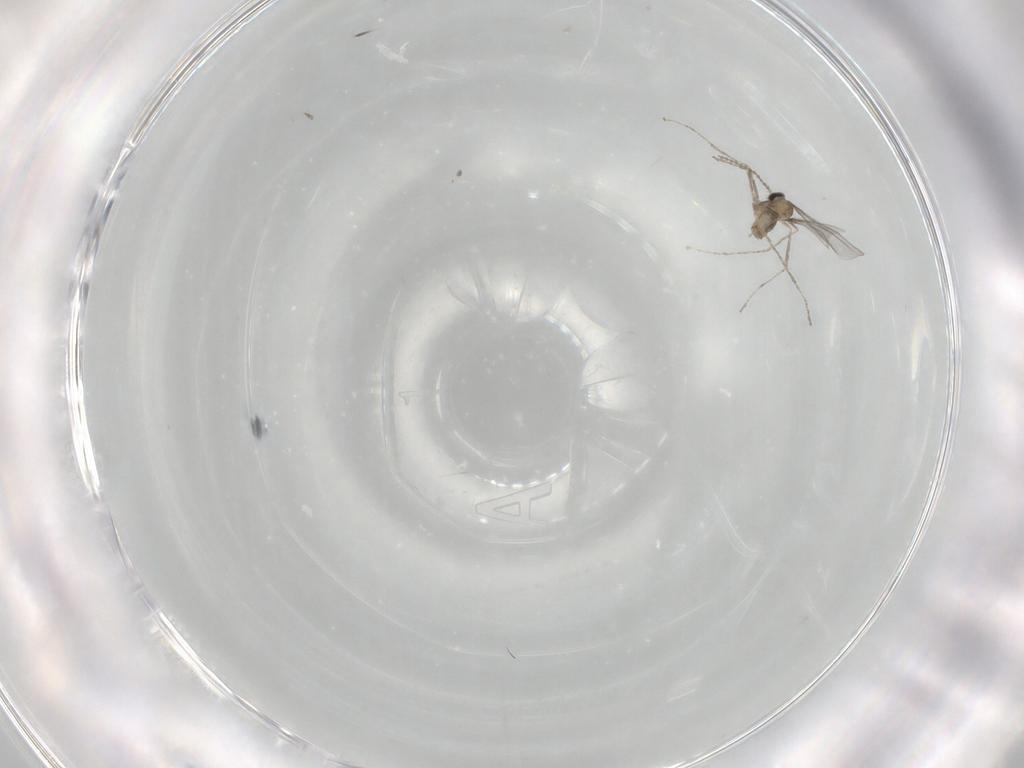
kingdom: Animalia
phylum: Arthropoda
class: Insecta
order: Diptera
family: Cecidomyiidae
